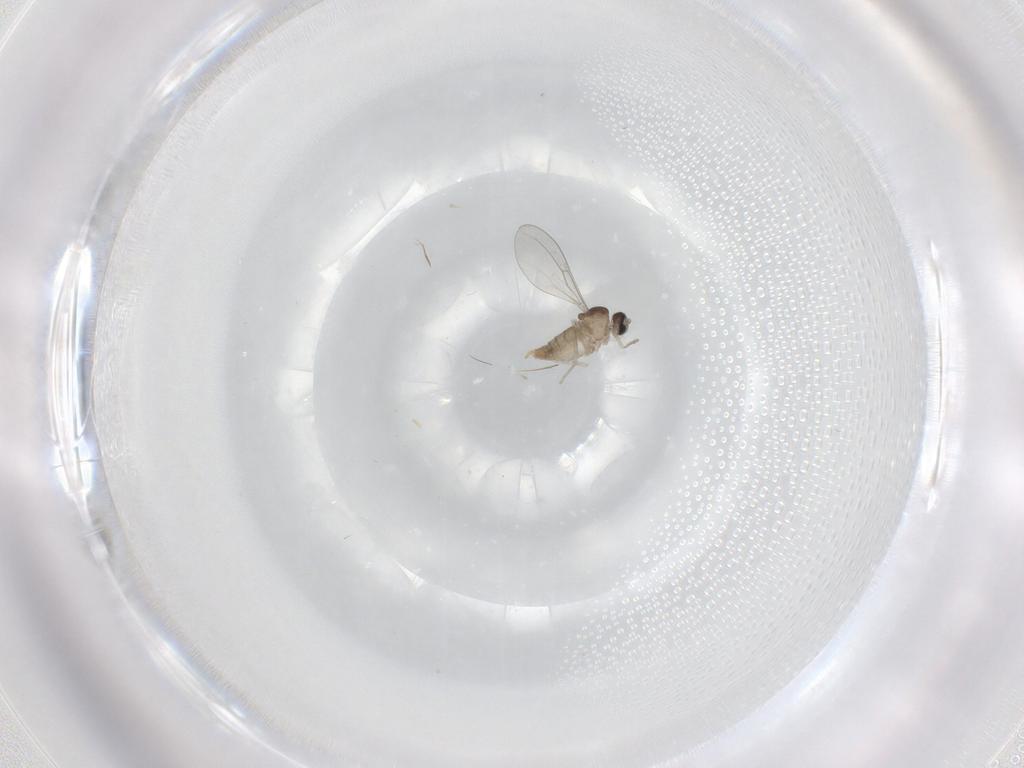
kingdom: Animalia
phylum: Arthropoda
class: Insecta
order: Diptera
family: Cecidomyiidae
